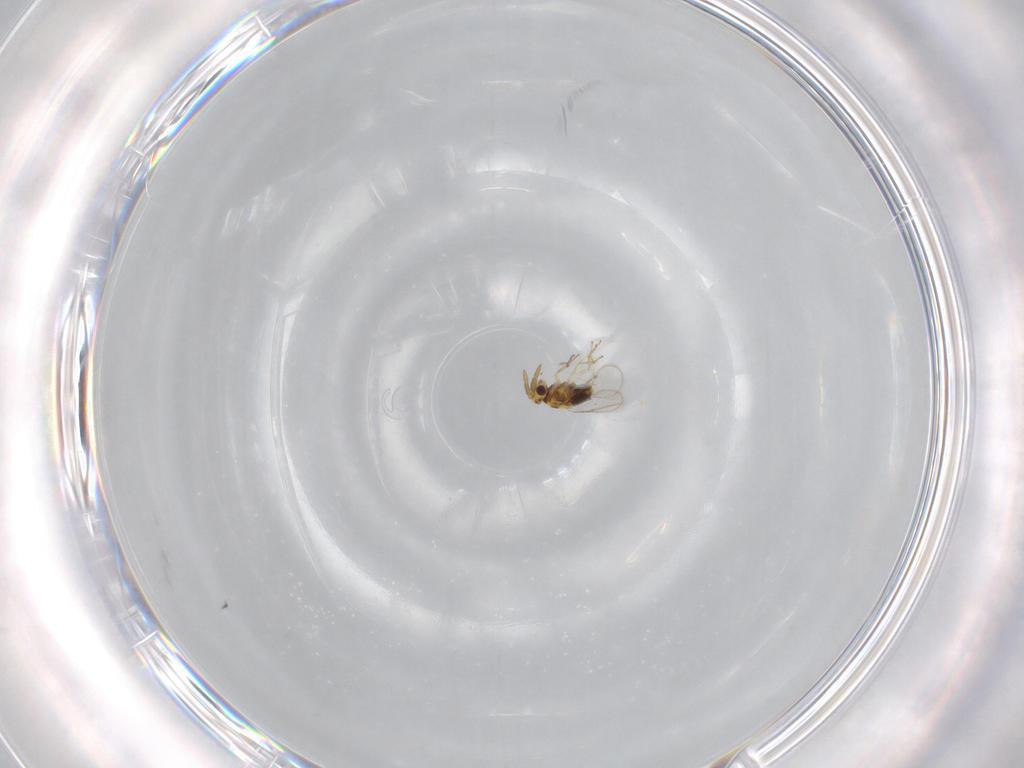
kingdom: Animalia
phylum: Arthropoda
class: Insecta
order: Hymenoptera
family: Aphelinidae
